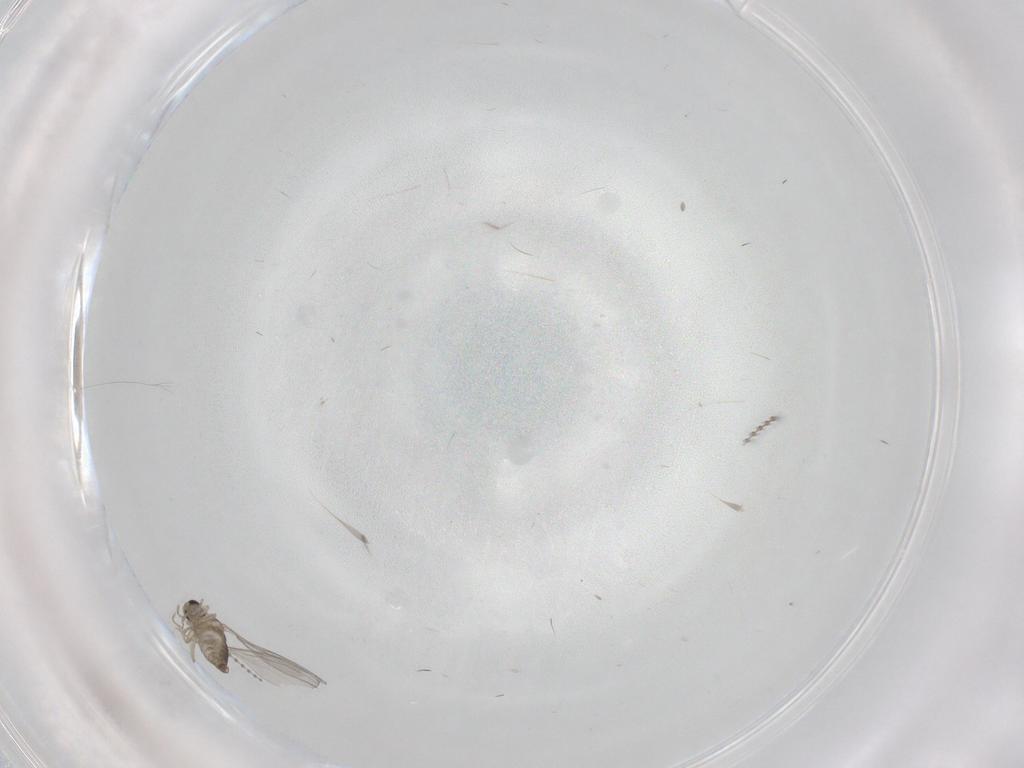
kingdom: Animalia
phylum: Arthropoda
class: Insecta
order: Diptera
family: Cecidomyiidae
